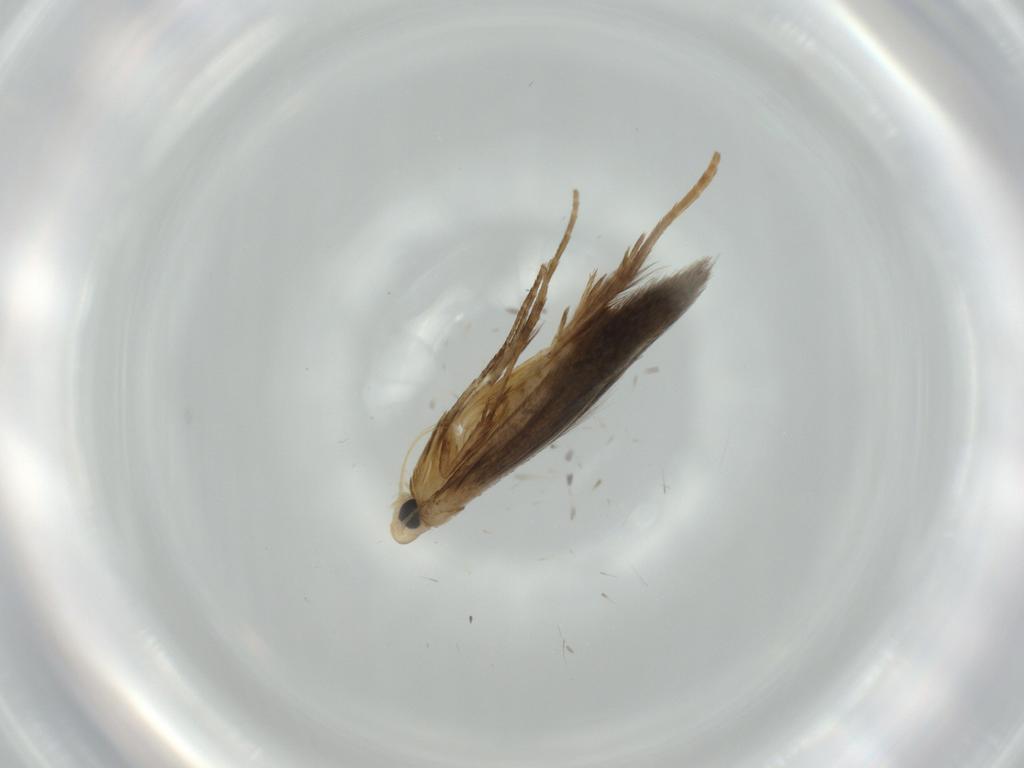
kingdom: Animalia
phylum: Arthropoda
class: Insecta
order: Lepidoptera
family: Tischeriidae
